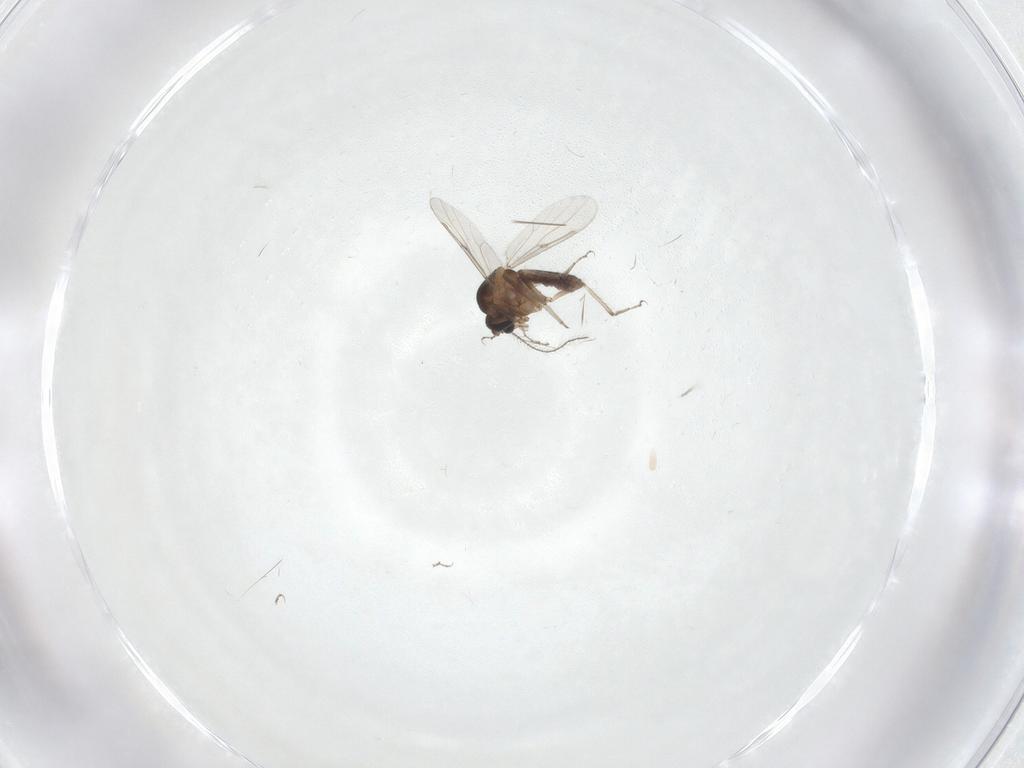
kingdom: Animalia
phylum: Arthropoda
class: Insecta
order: Diptera
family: Ceratopogonidae
